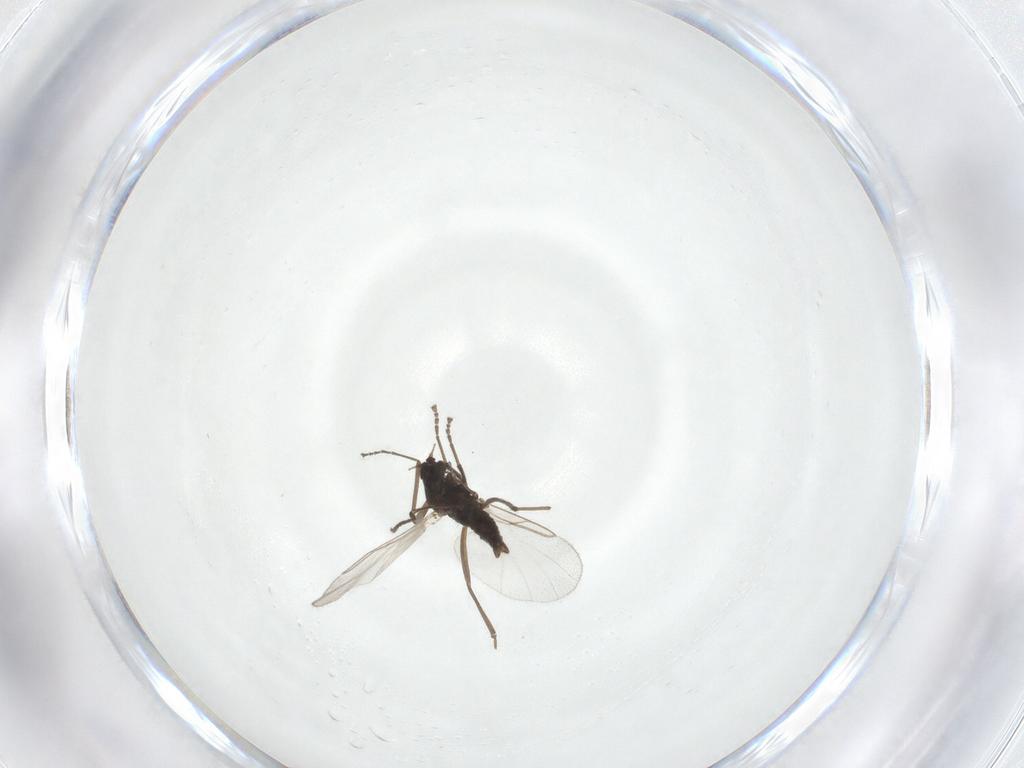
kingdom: Animalia
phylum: Arthropoda
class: Insecta
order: Diptera
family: Cecidomyiidae
